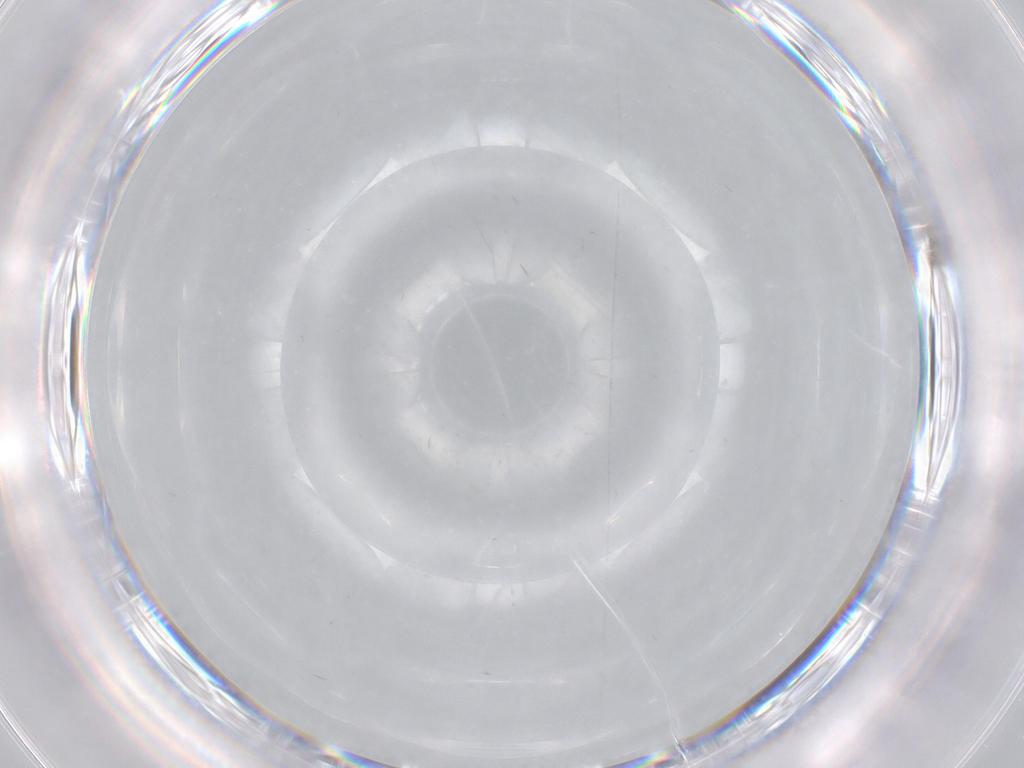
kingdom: Animalia
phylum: Arthropoda
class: Insecta
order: Diptera
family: Cecidomyiidae
